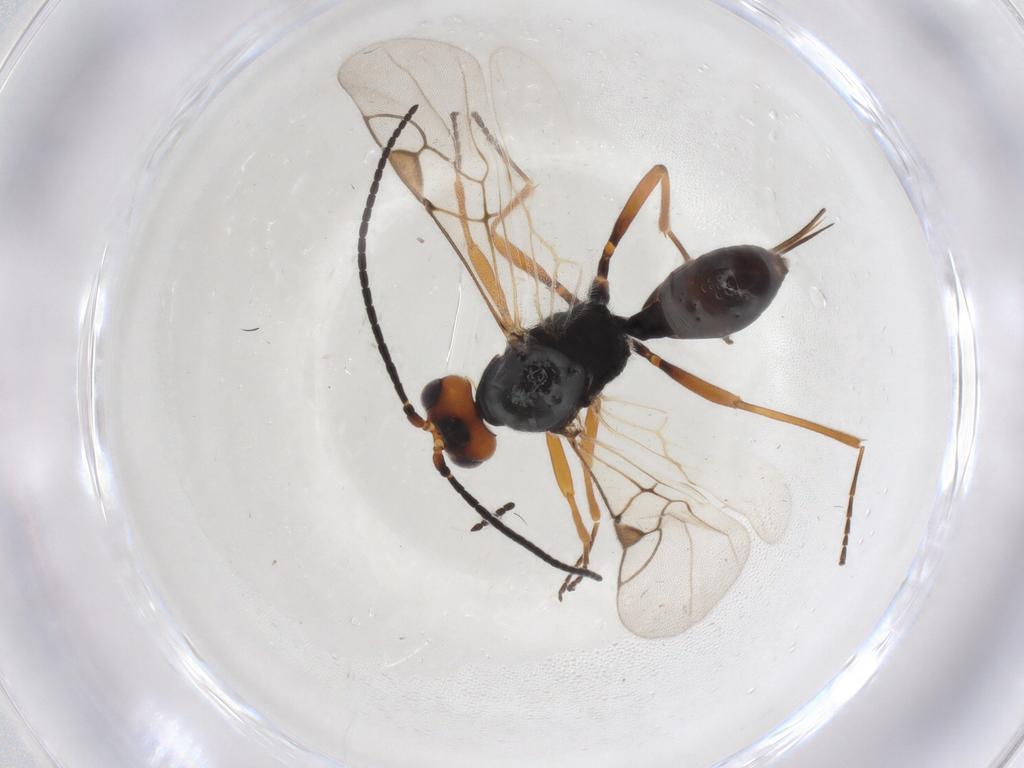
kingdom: Animalia
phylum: Arthropoda
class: Insecta
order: Hymenoptera
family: Braconidae
